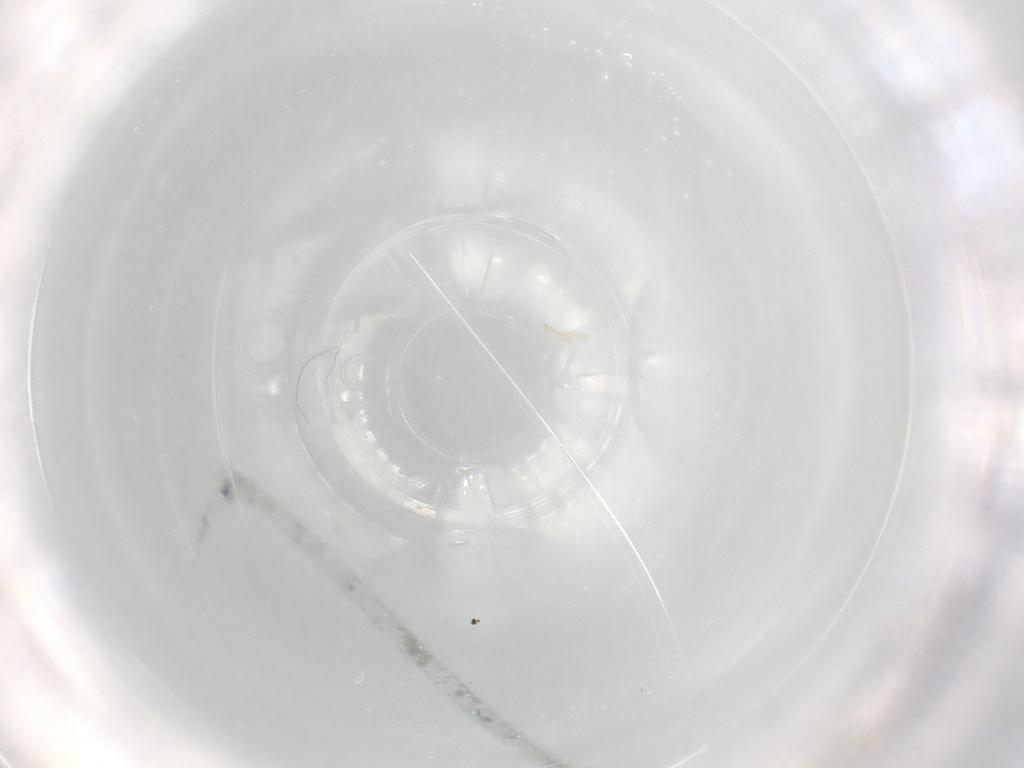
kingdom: Animalia
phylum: Arthropoda
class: Insecta
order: Diptera
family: Chironomidae
